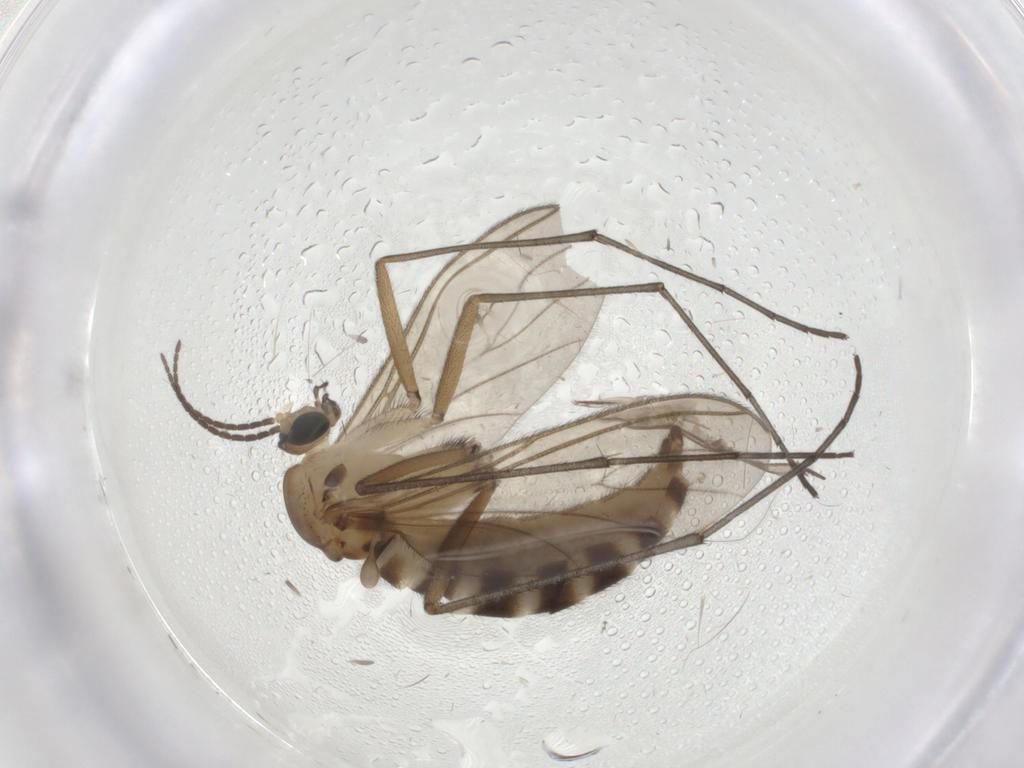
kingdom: Animalia
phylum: Arthropoda
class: Insecta
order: Diptera
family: Sciaridae
